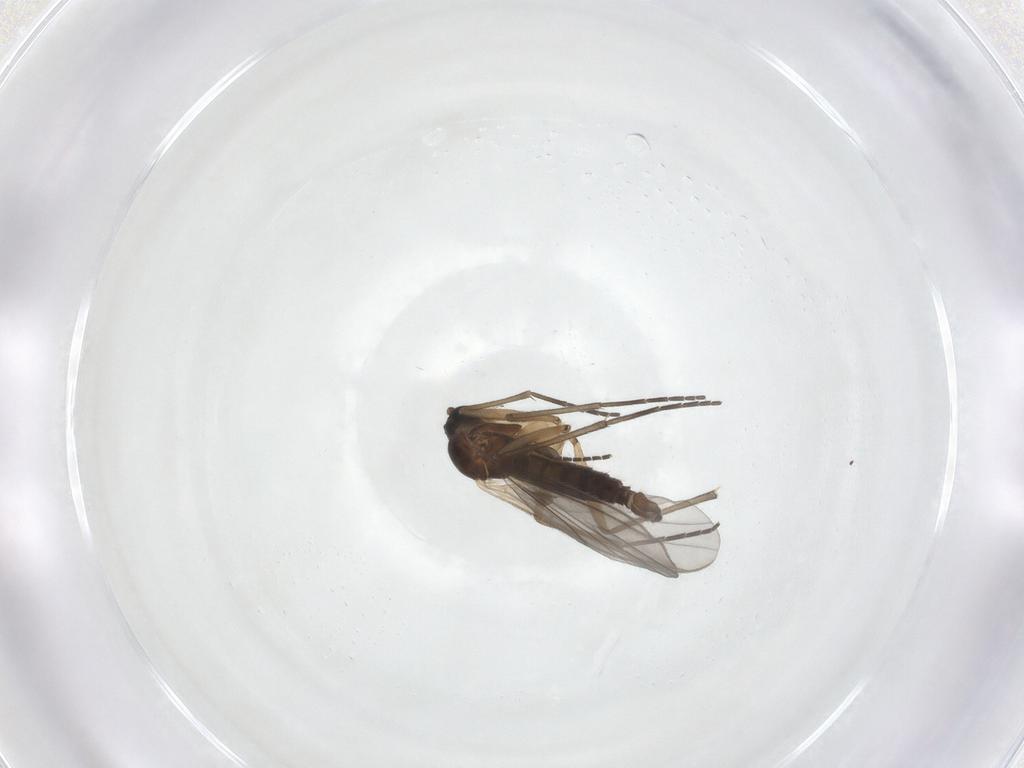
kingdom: Animalia
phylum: Arthropoda
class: Insecta
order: Diptera
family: Sciaridae
